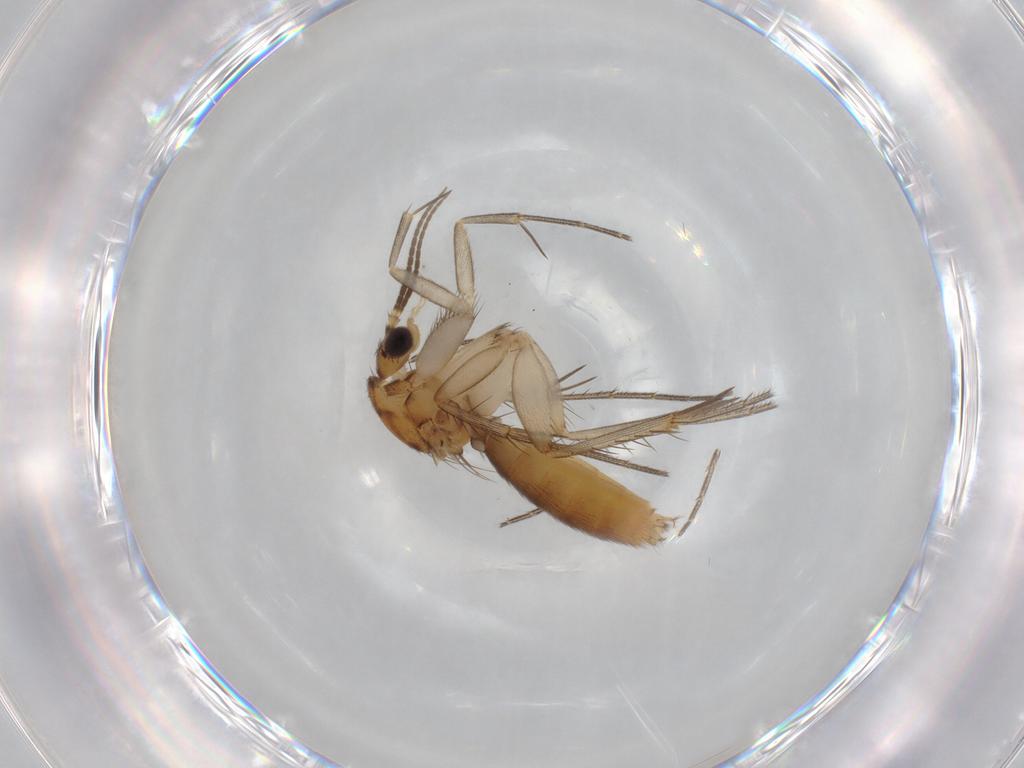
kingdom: Animalia
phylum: Arthropoda
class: Insecta
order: Diptera
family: Mycetophilidae
